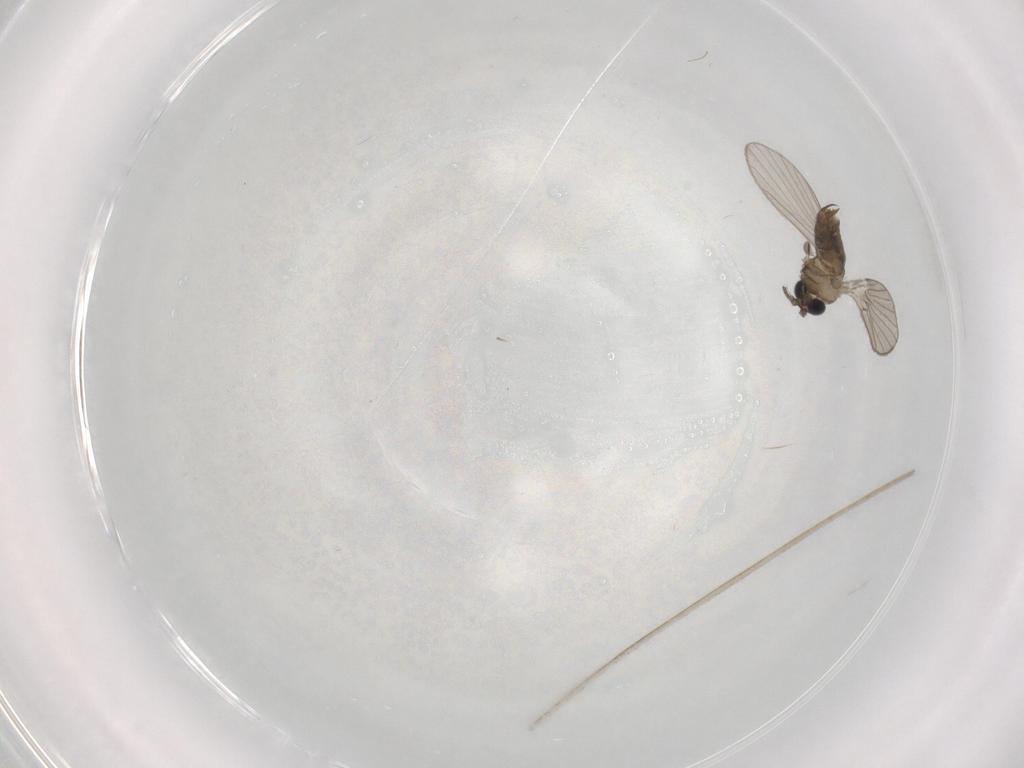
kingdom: Animalia
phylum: Arthropoda
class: Insecta
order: Diptera
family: Psychodidae
